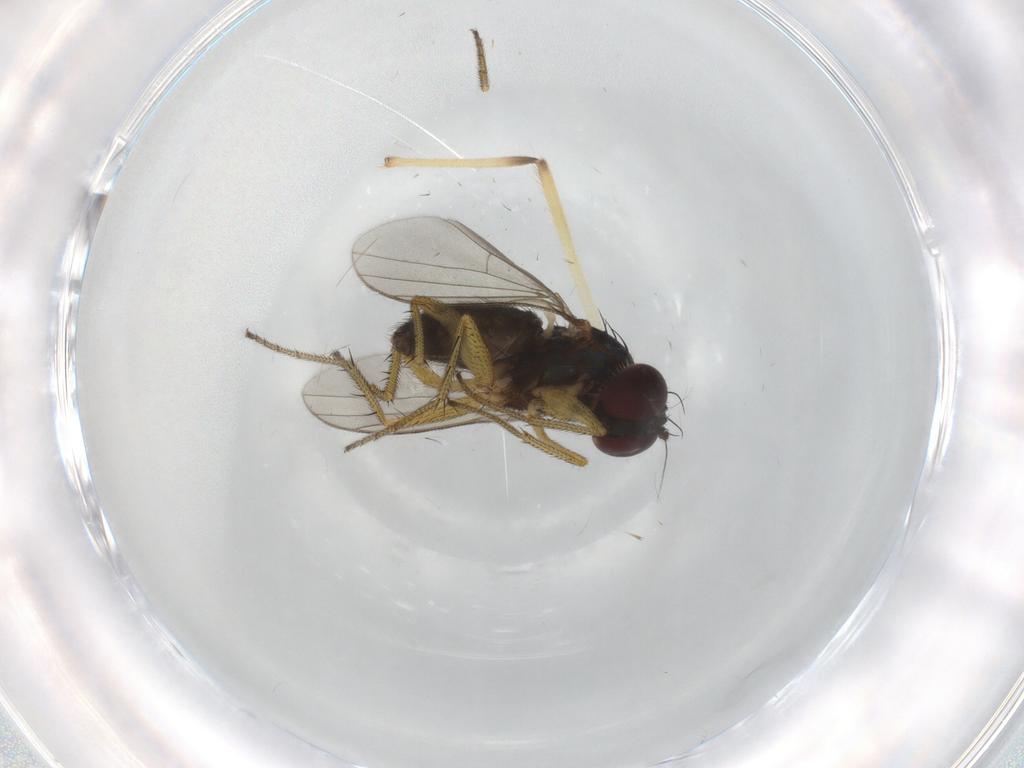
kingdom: Animalia
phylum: Arthropoda
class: Insecta
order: Diptera
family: Dolichopodidae
